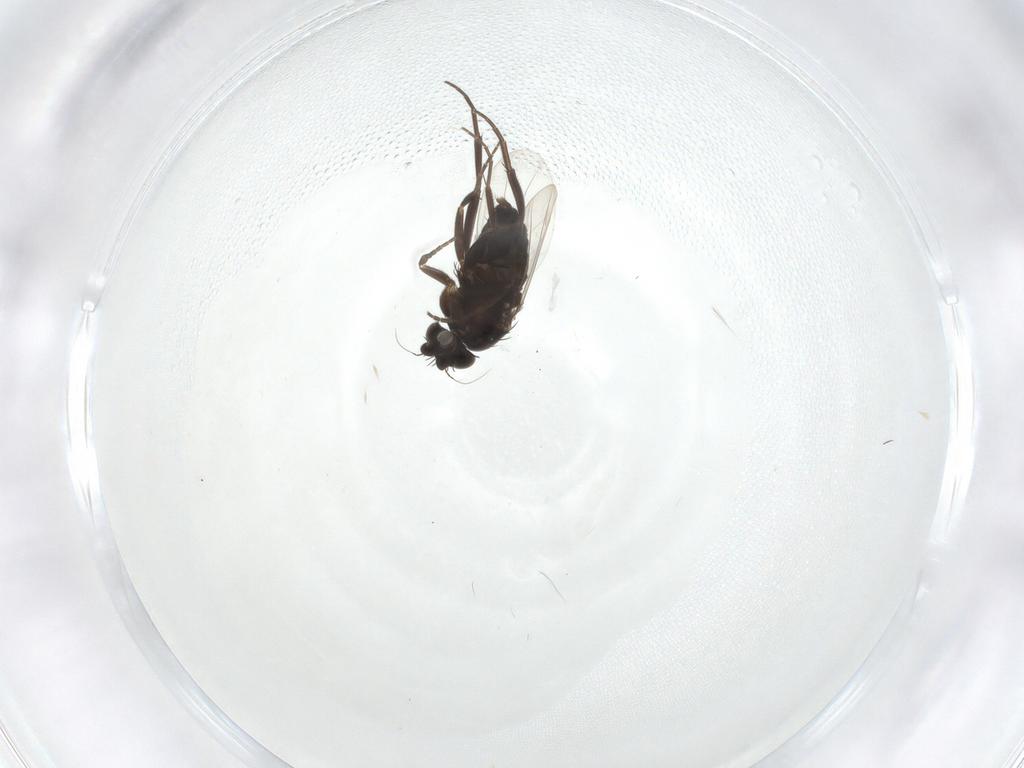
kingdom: Animalia
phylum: Arthropoda
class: Insecta
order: Diptera
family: Phoridae
